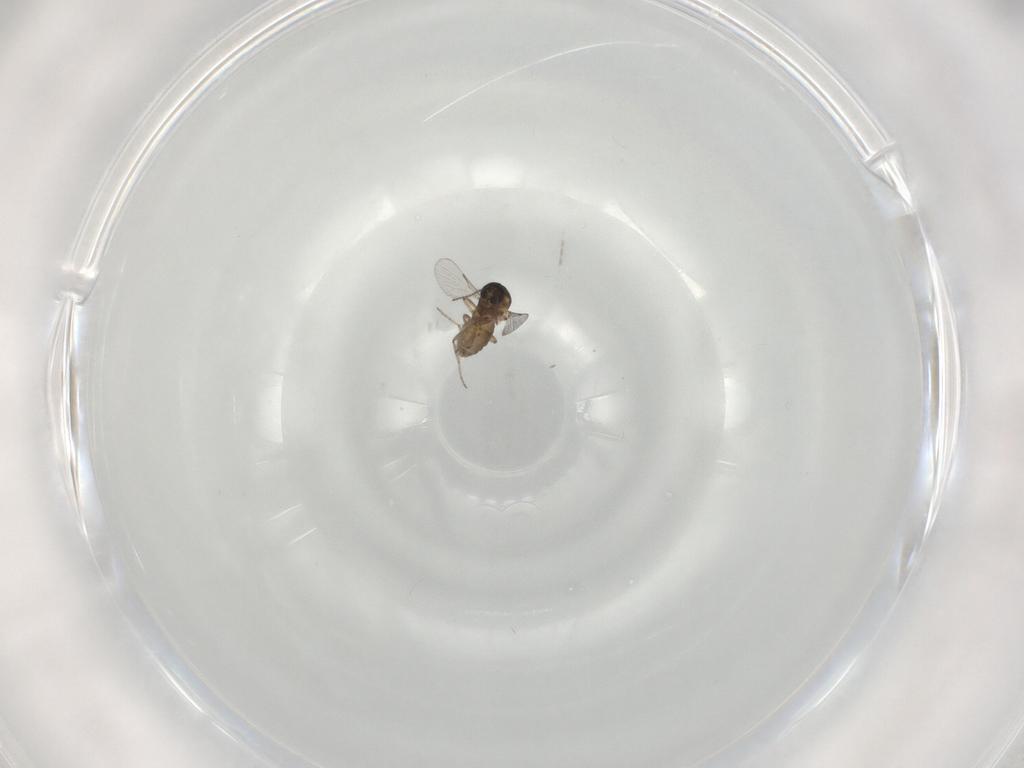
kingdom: Animalia
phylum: Arthropoda
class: Insecta
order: Diptera
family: Ceratopogonidae
